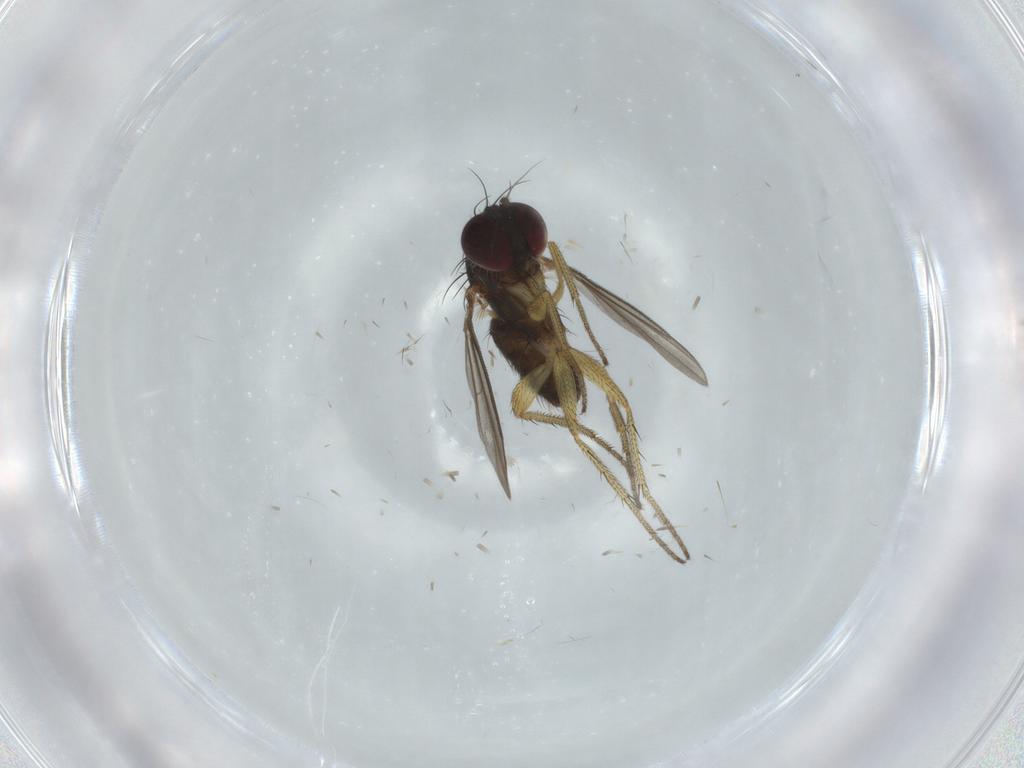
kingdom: Animalia
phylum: Arthropoda
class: Insecta
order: Diptera
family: Dolichopodidae
